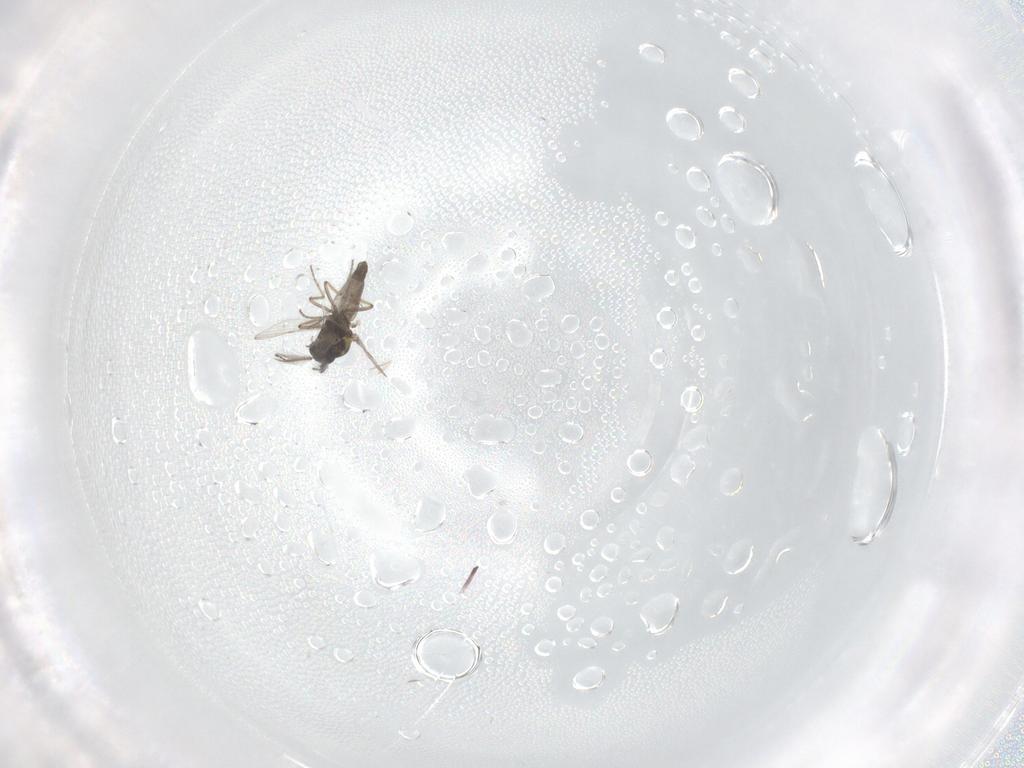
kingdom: Animalia
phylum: Arthropoda
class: Insecta
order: Diptera
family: Ceratopogonidae
